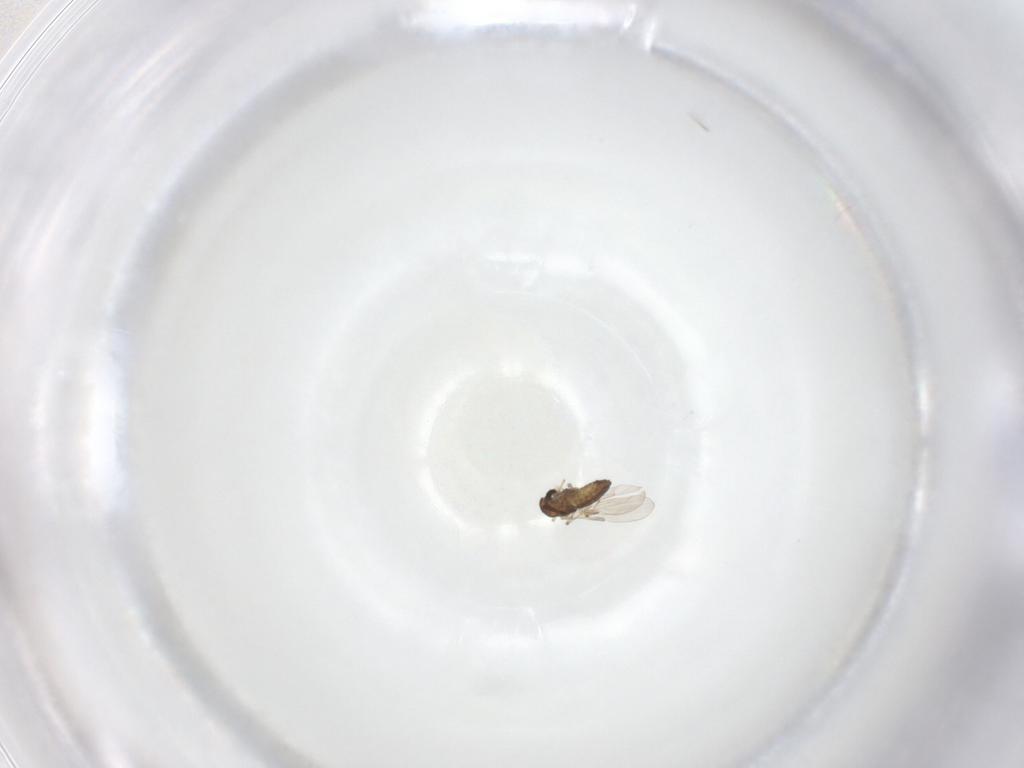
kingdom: Animalia
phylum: Arthropoda
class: Insecta
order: Diptera
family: Chironomidae
